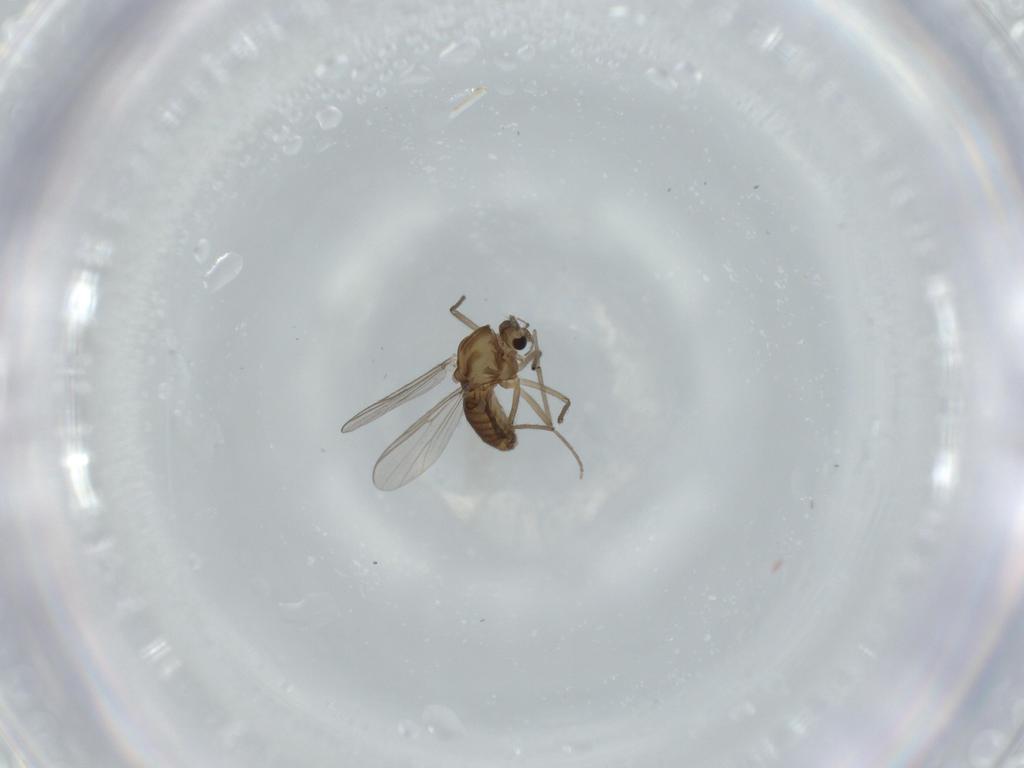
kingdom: Animalia
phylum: Arthropoda
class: Insecta
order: Diptera
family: Chironomidae
